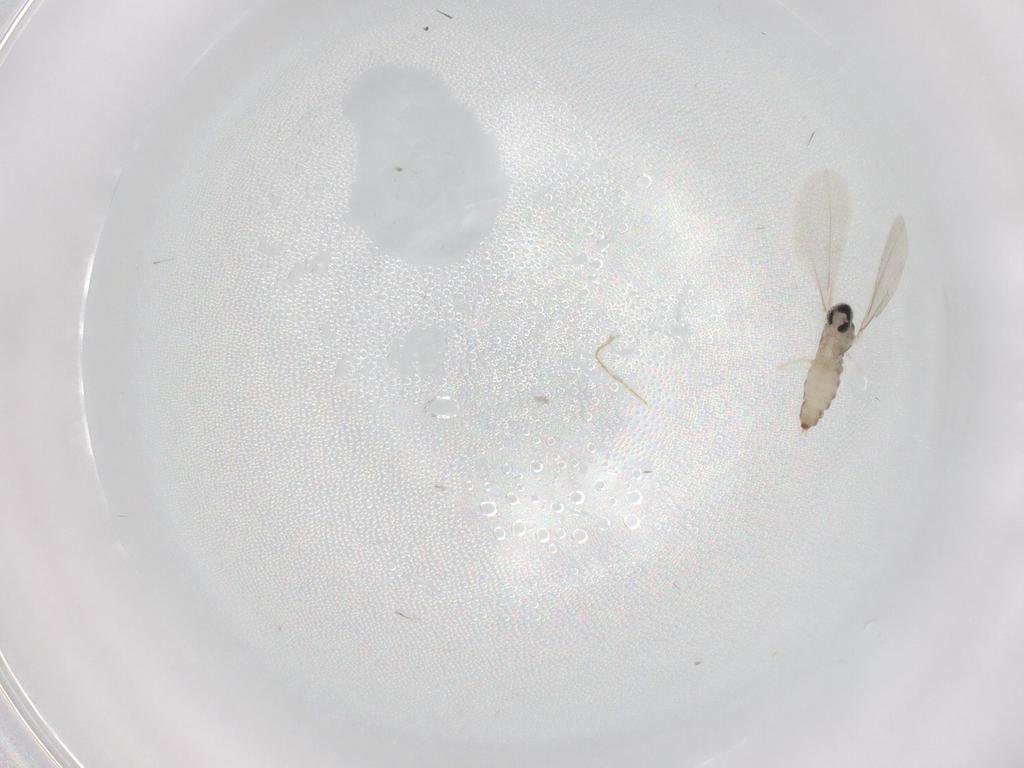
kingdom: Animalia
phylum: Arthropoda
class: Insecta
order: Diptera
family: Cecidomyiidae
